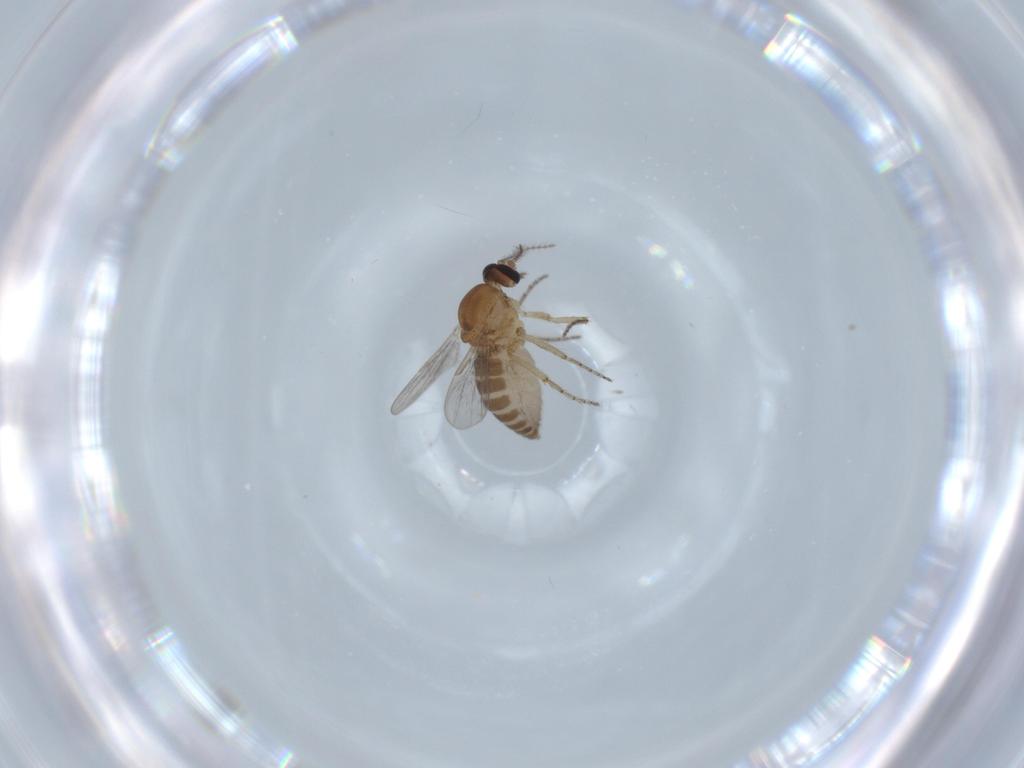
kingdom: Animalia
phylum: Arthropoda
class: Insecta
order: Diptera
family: Ceratopogonidae
